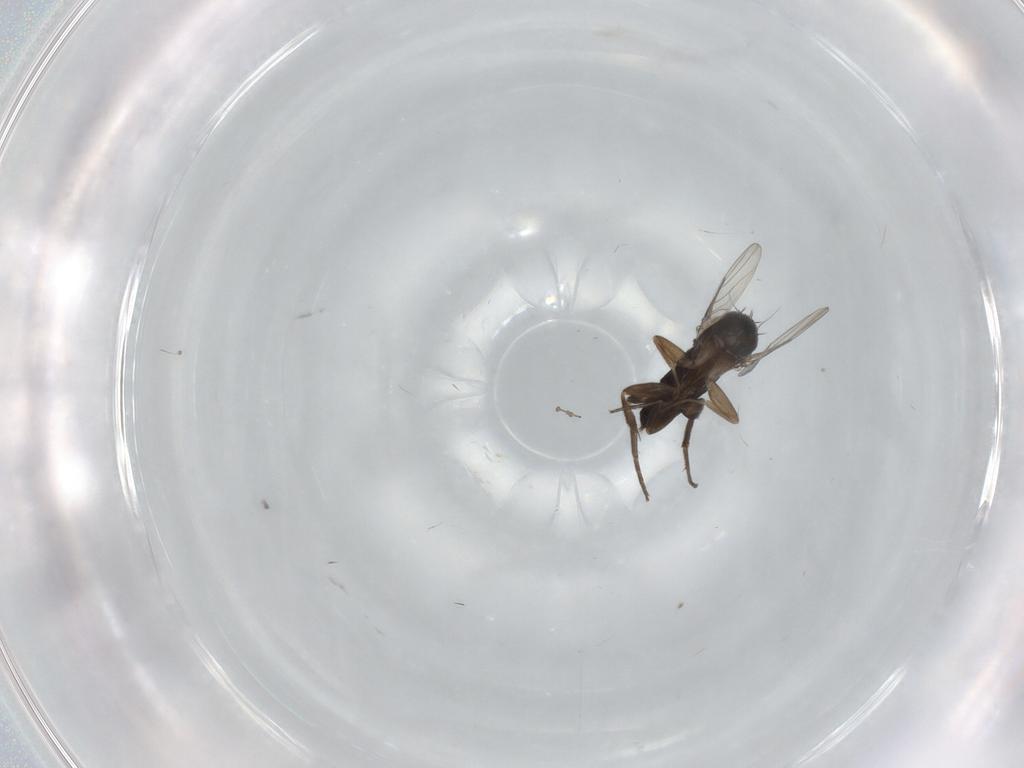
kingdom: Animalia
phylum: Arthropoda
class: Insecta
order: Diptera
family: Phoridae
